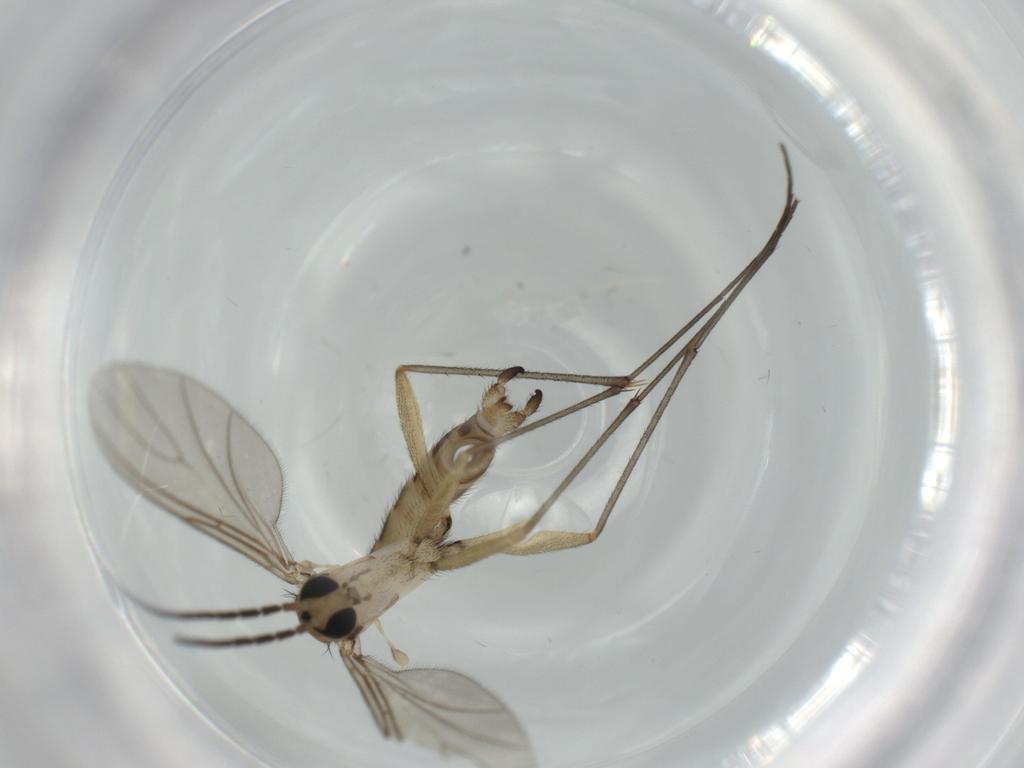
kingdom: Animalia
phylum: Arthropoda
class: Insecta
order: Diptera
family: Sciaridae
